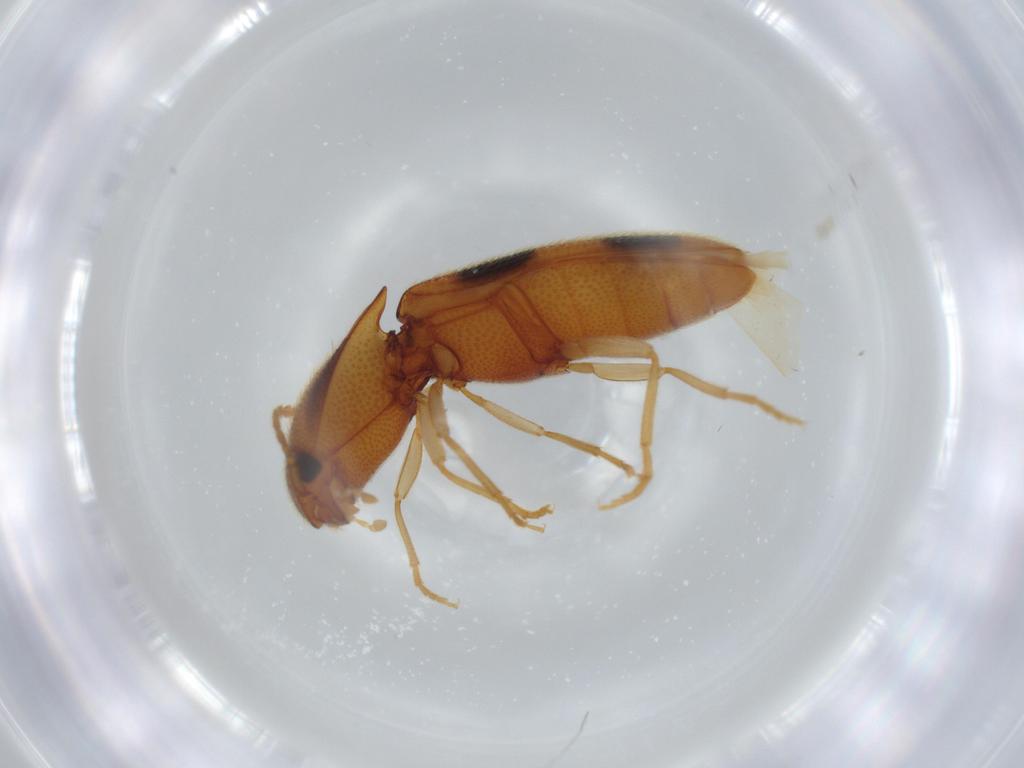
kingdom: Animalia
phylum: Arthropoda
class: Insecta
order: Coleoptera
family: Elateridae
